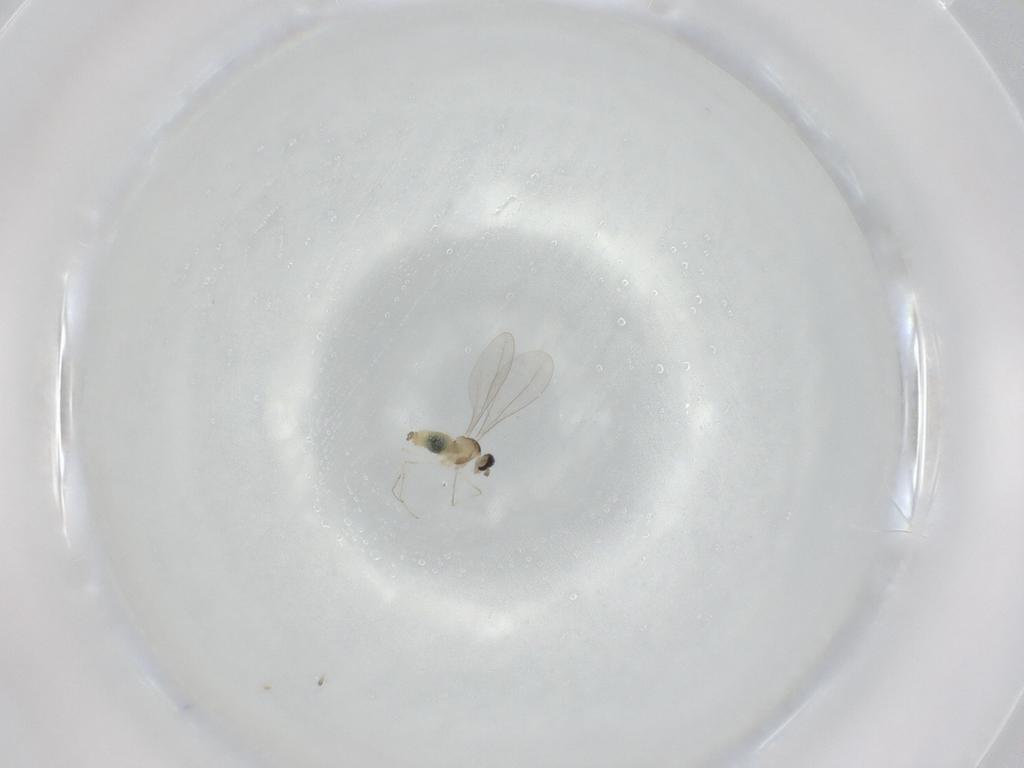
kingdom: Animalia
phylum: Arthropoda
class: Insecta
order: Diptera
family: Cecidomyiidae
